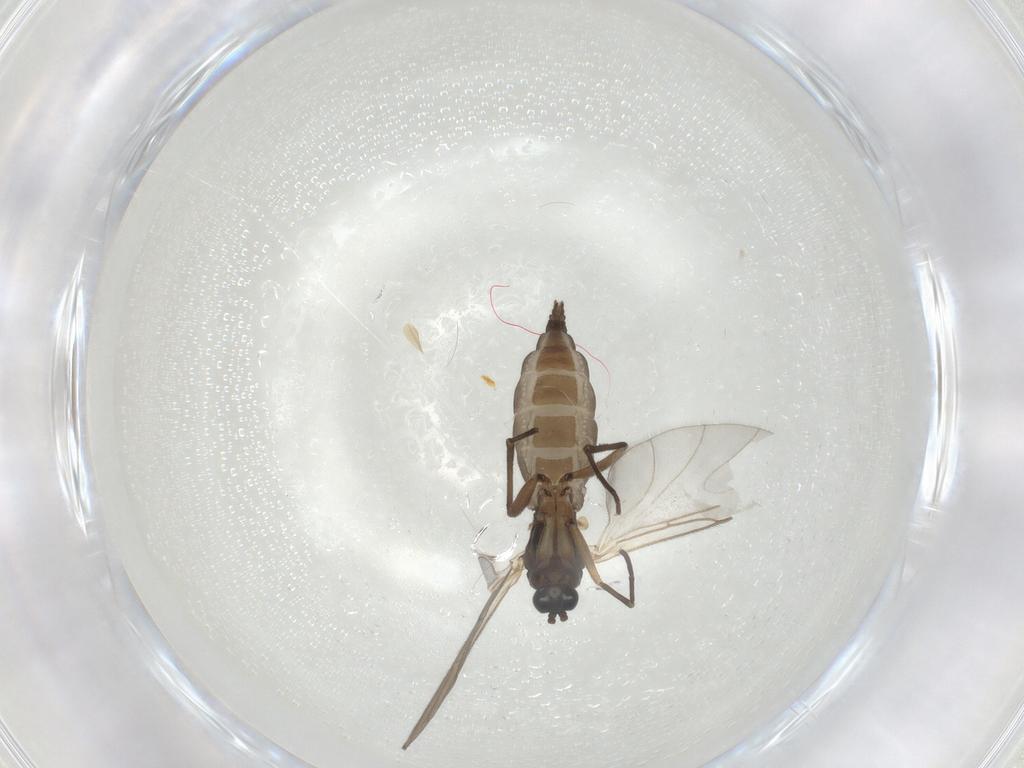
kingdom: Animalia
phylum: Arthropoda
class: Insecta
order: Diptera
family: Sciaridae
